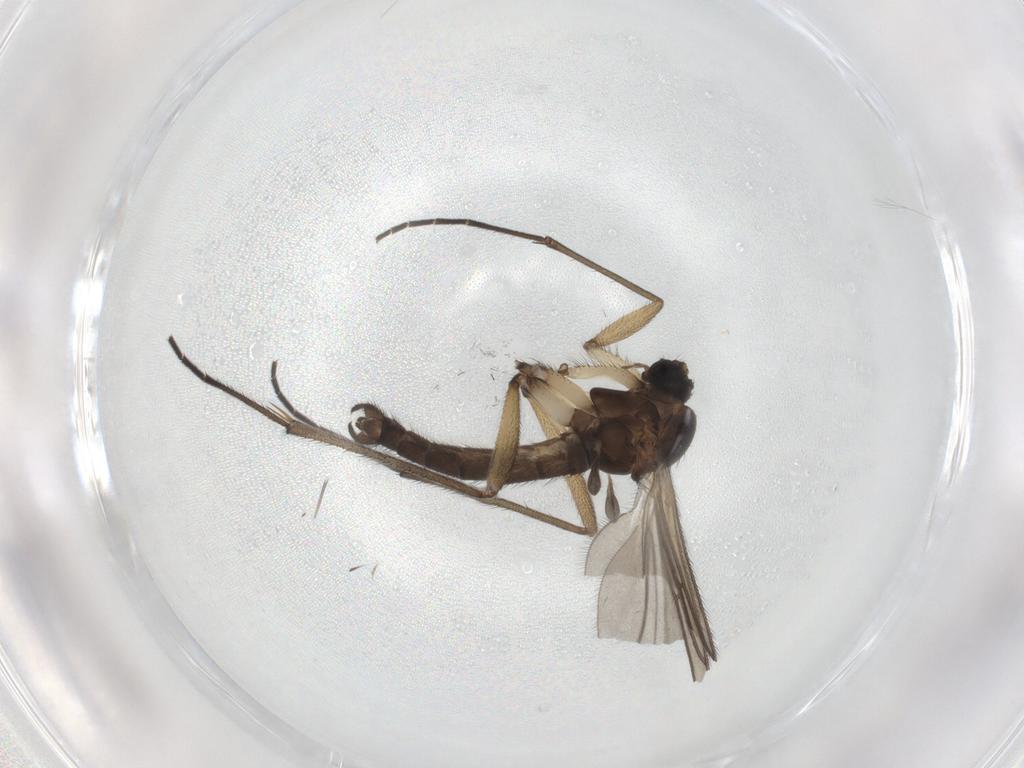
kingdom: Animalia
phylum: Arthropoda
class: Insecta
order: Diptera
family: Sciaridae
